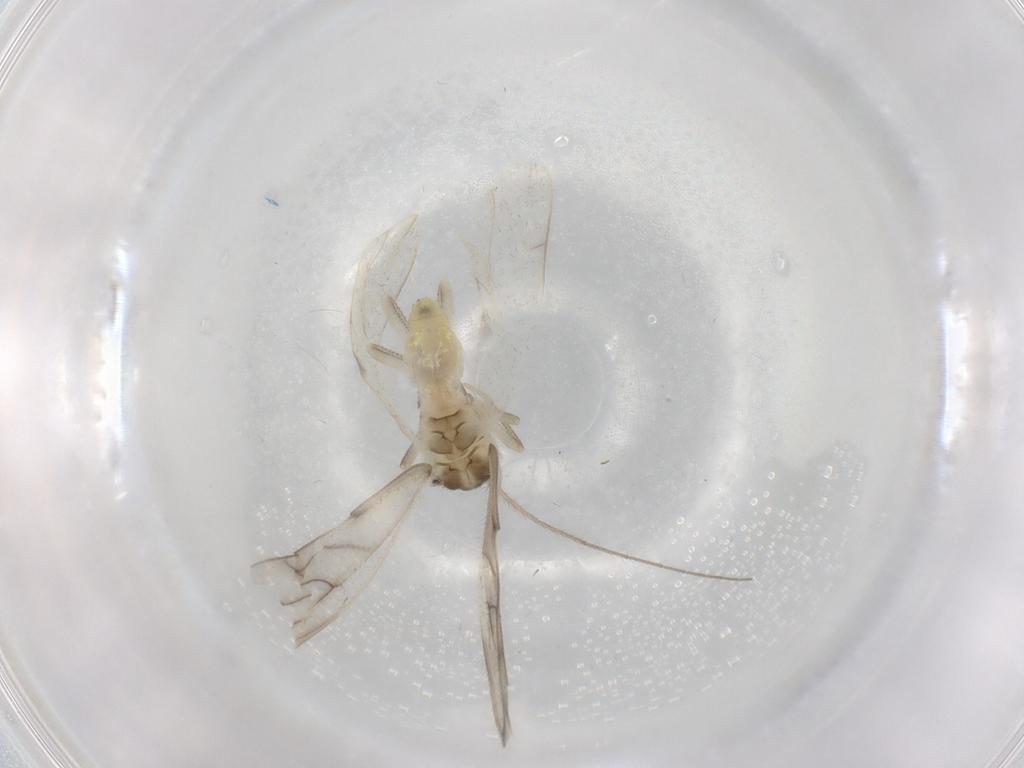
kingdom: Animalia
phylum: Arthropoda
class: Insecta
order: Psocodea
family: Caeciliusidae
